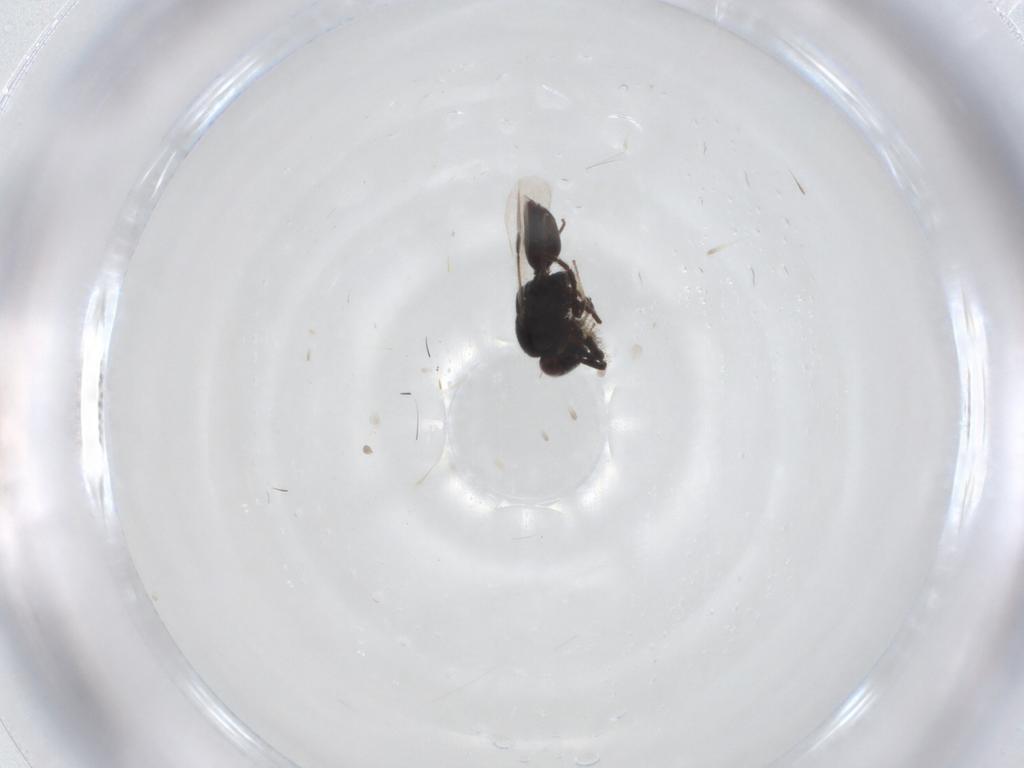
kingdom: Animalia
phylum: Arthropoda
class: Insecta
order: Hymenoptera
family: Megaspilidae
